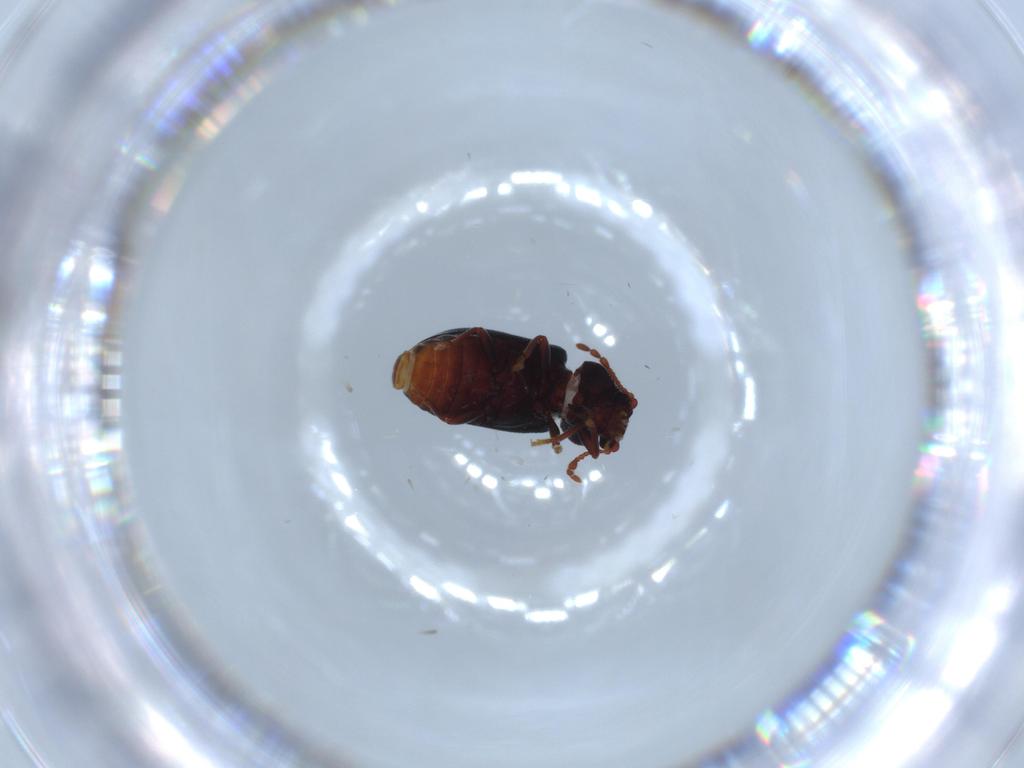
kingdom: Animalia
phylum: Arthropoda
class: Insecta
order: Coleoptera
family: Ptinidae
